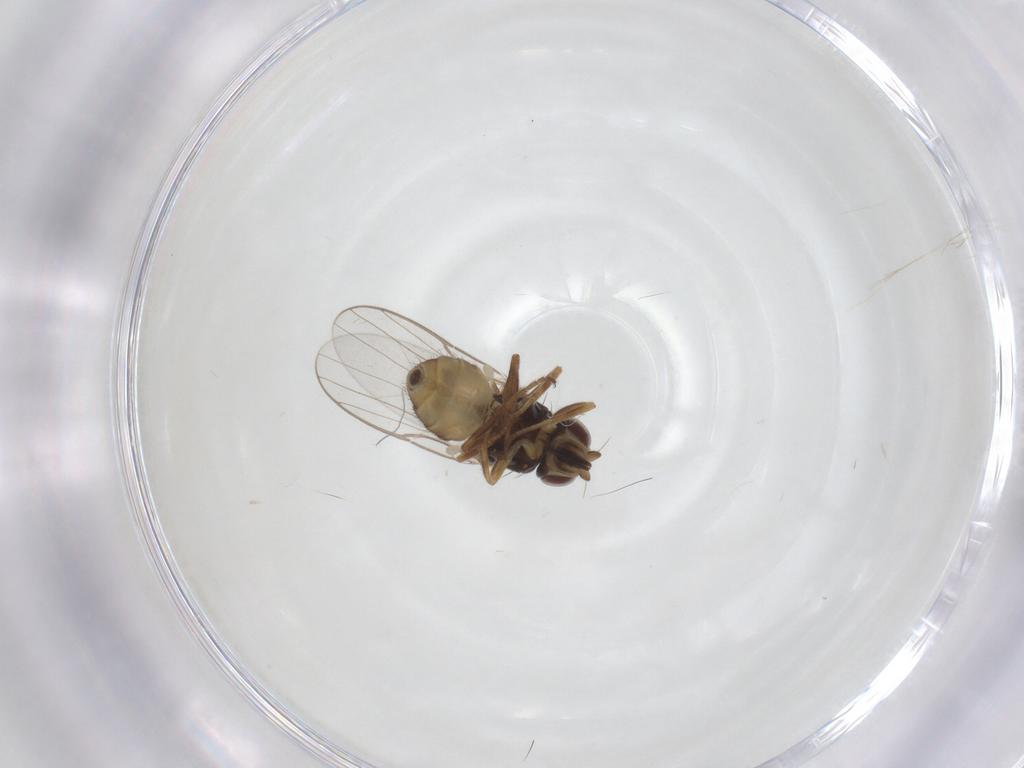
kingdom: Animalia
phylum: Arthropoda
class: Insecta
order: Diptera
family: Chloropidae
